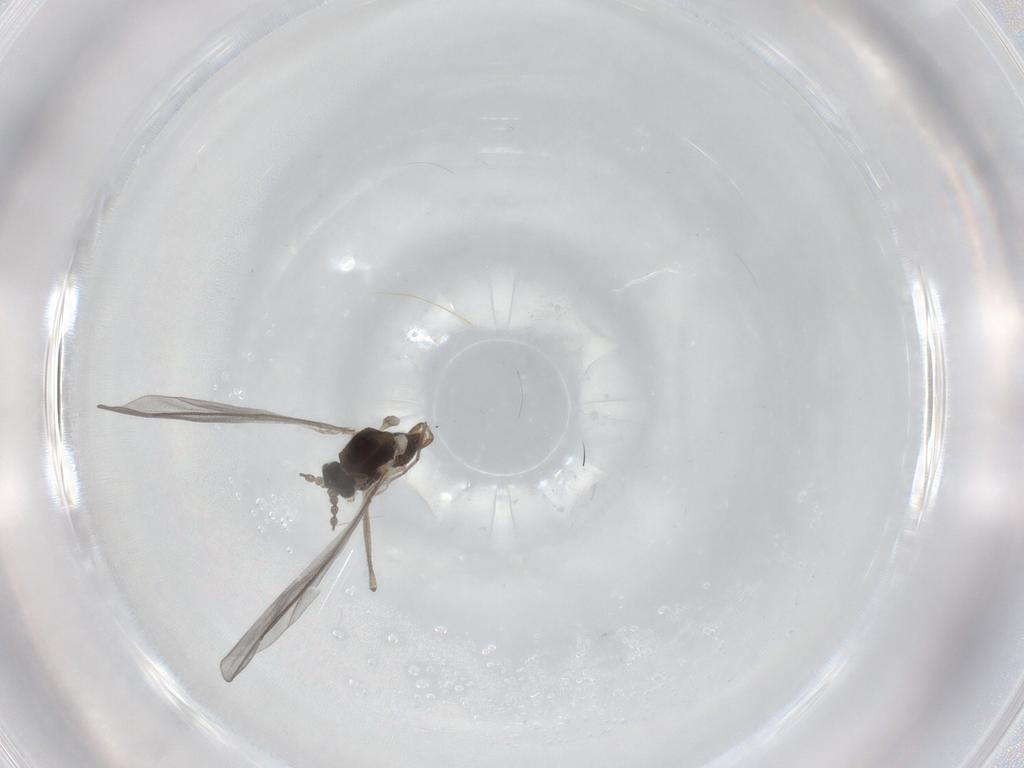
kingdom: Animalia
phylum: Arthropoda
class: Insecta
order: Diptera
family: Cecidomyiidae
